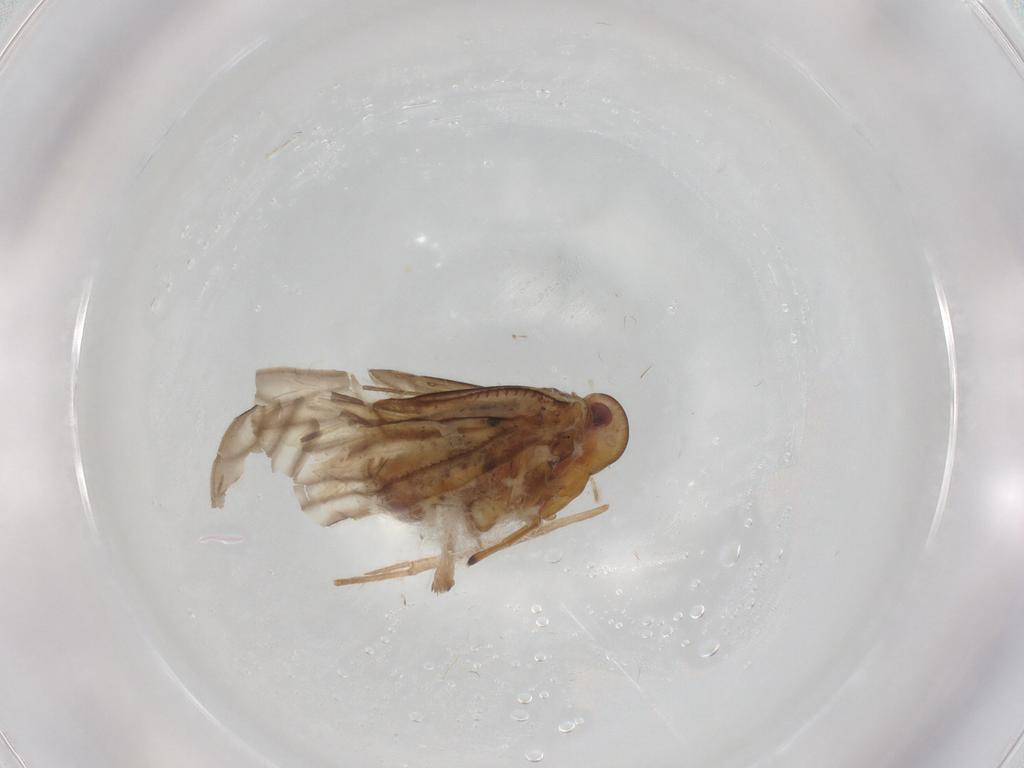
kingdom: Animalia
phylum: Arthropoda
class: Insecta
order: Hemiptera
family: Meenoplidae
